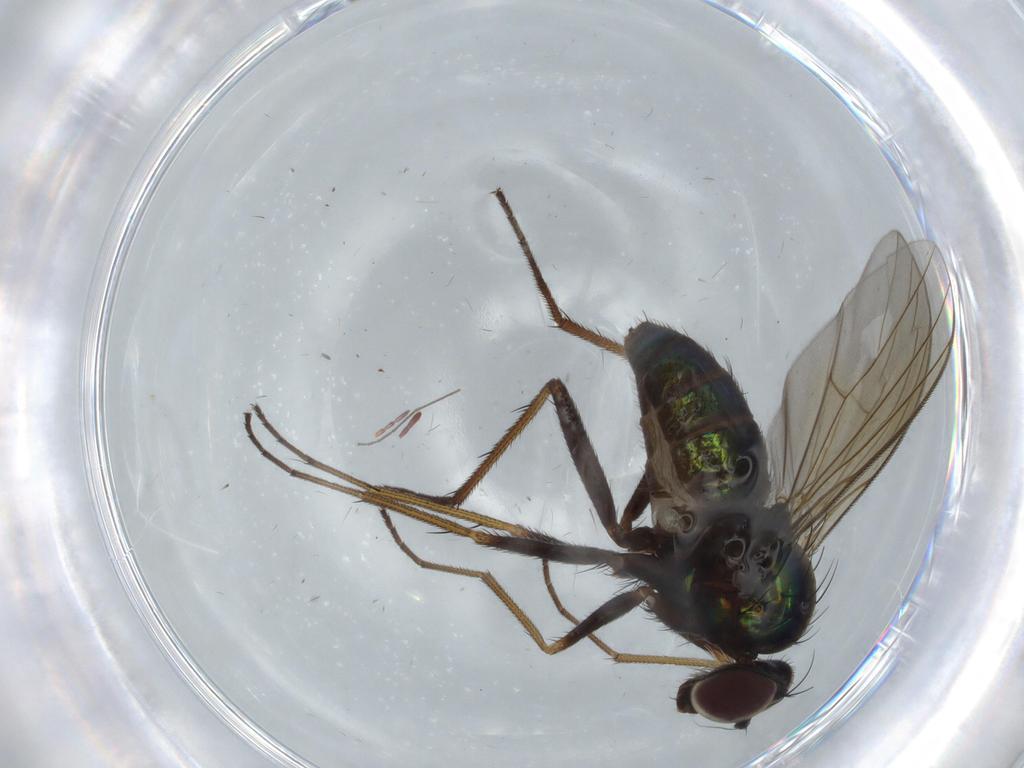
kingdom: Animalia
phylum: Arthropoda
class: Insecta
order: Diptera
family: Dolichopodidae
